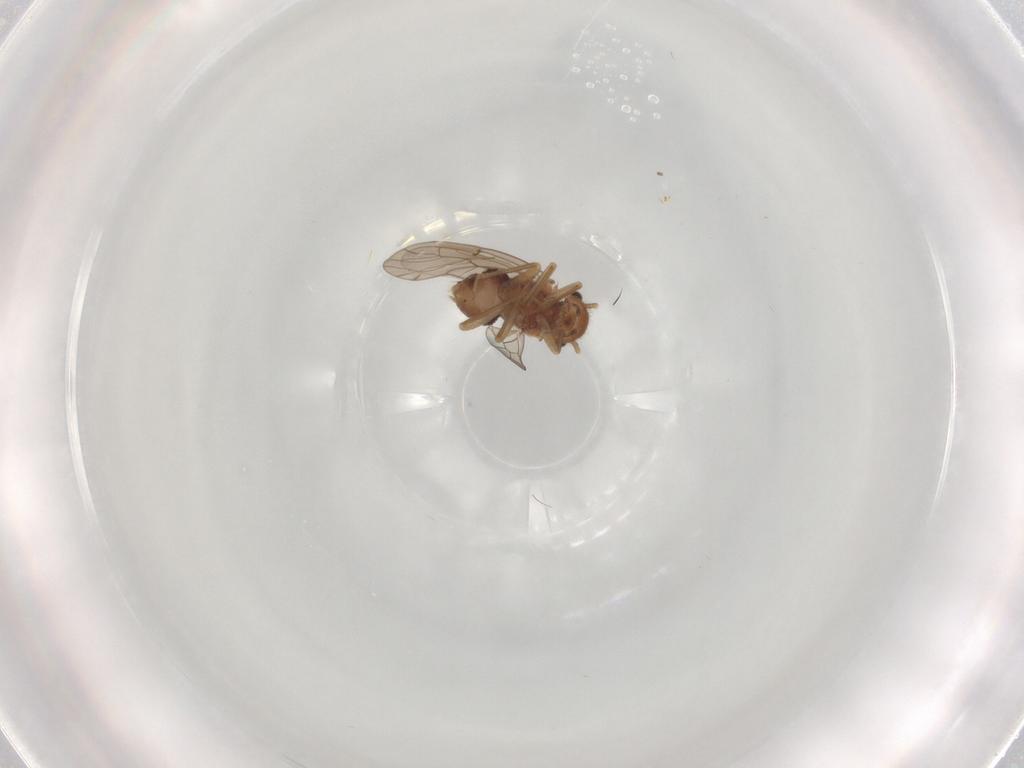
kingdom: Animalia
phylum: Arthropoda
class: Insecta
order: Psocodea
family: Ectopsocidae
